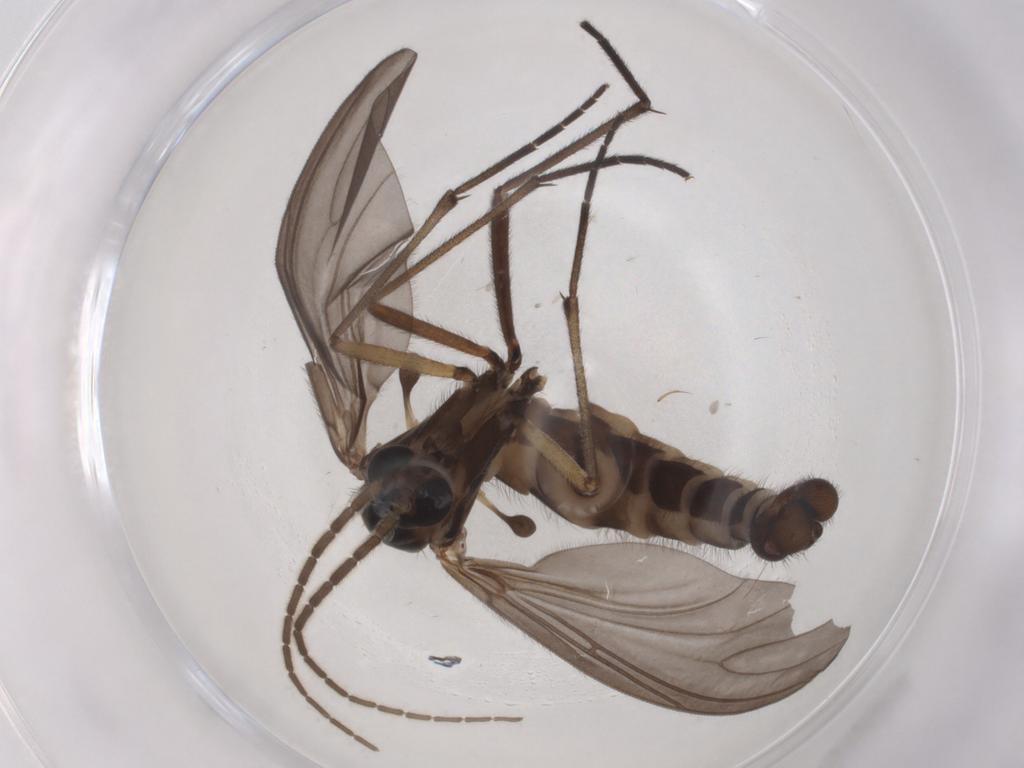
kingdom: Animalia
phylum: Arthropoda
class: Insecta
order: Diptera
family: Sciaridae
